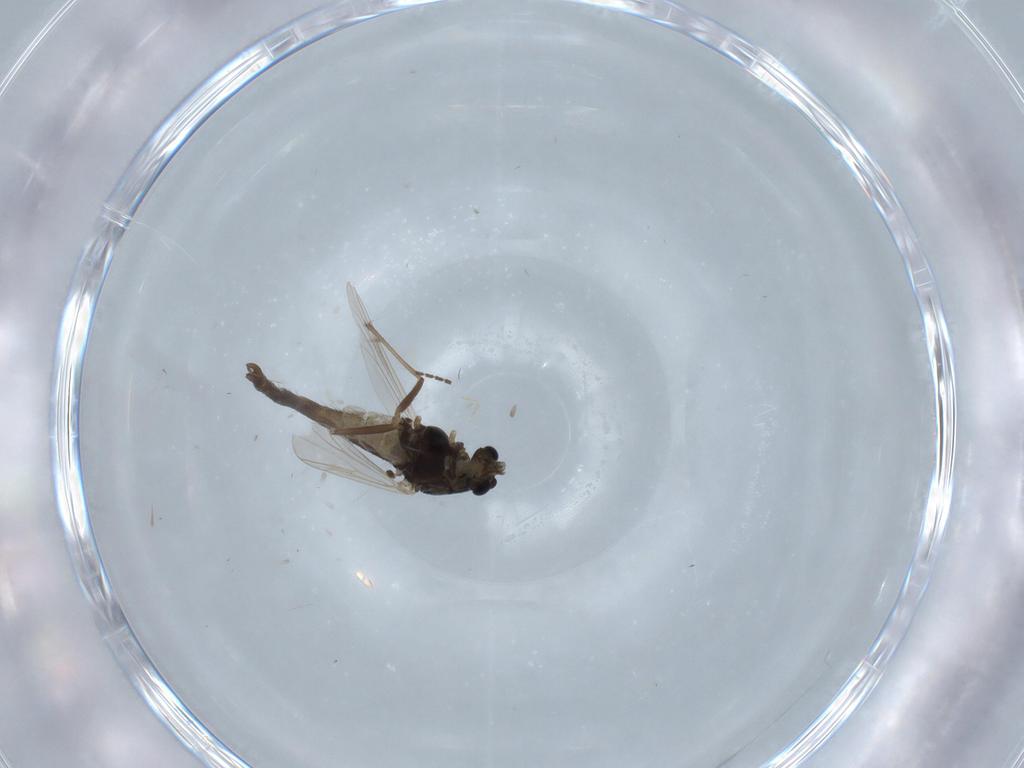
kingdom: Animalia
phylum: Arthropoda
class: Insecta
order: Diptera
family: Chironomidae
